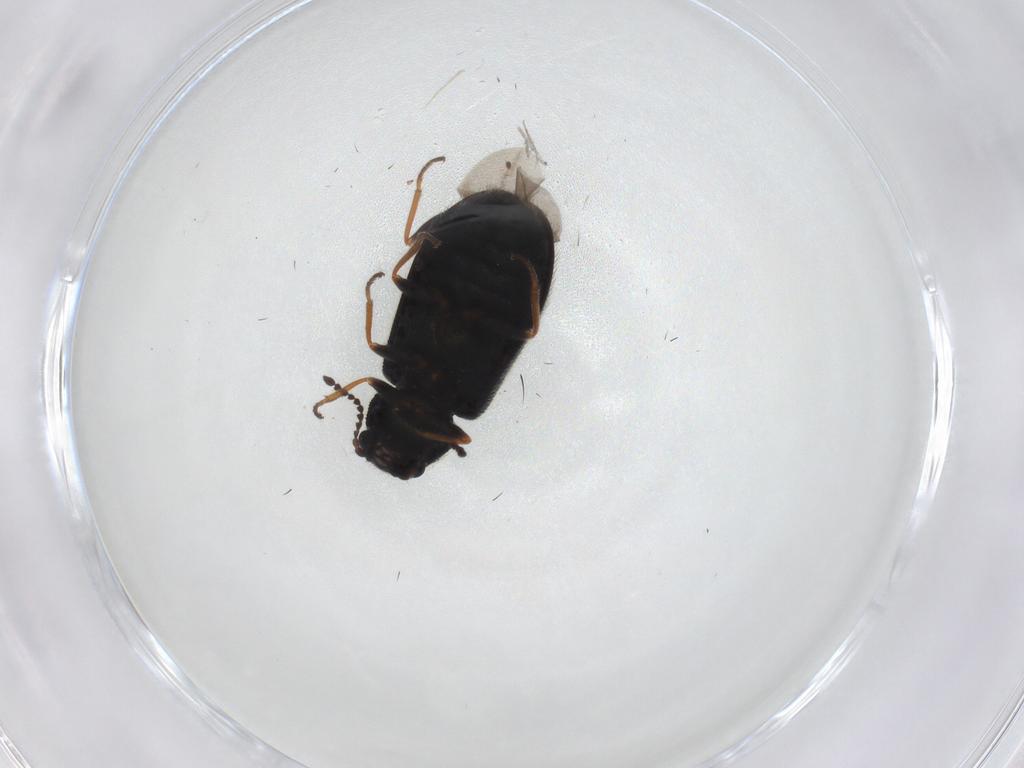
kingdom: Animalia
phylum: Arthropoda
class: Insecta
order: Coleoptera
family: Melyridae
